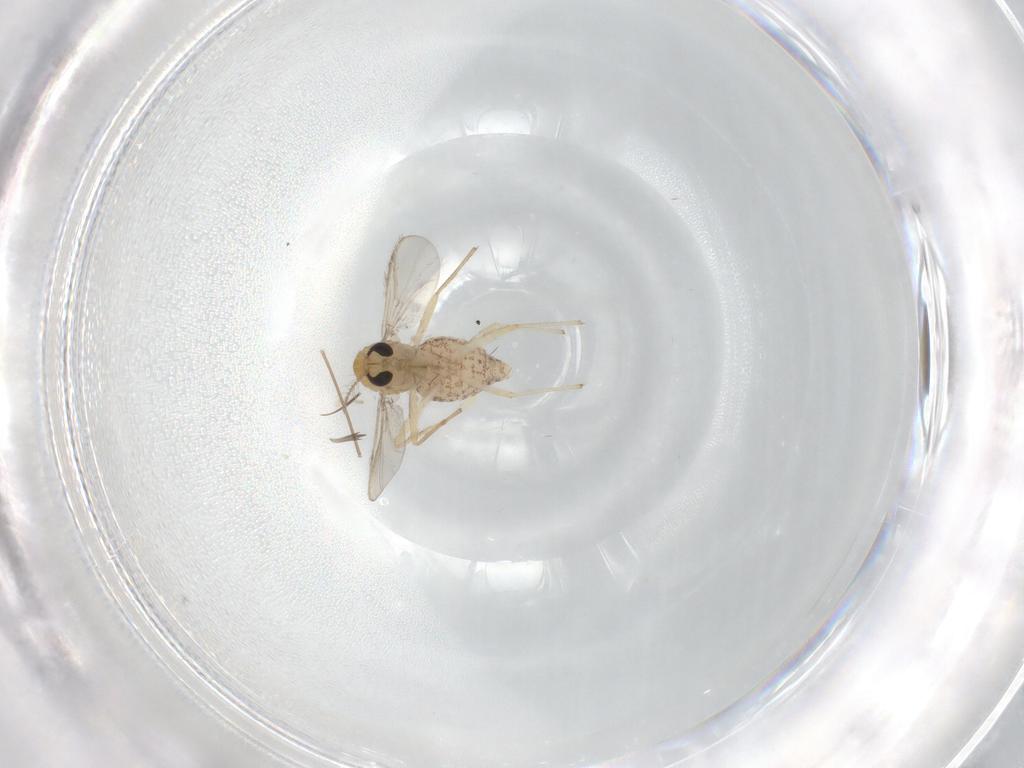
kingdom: Animalia
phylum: Arthropoda
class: Insecta
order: Diptera
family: Chironomidae
